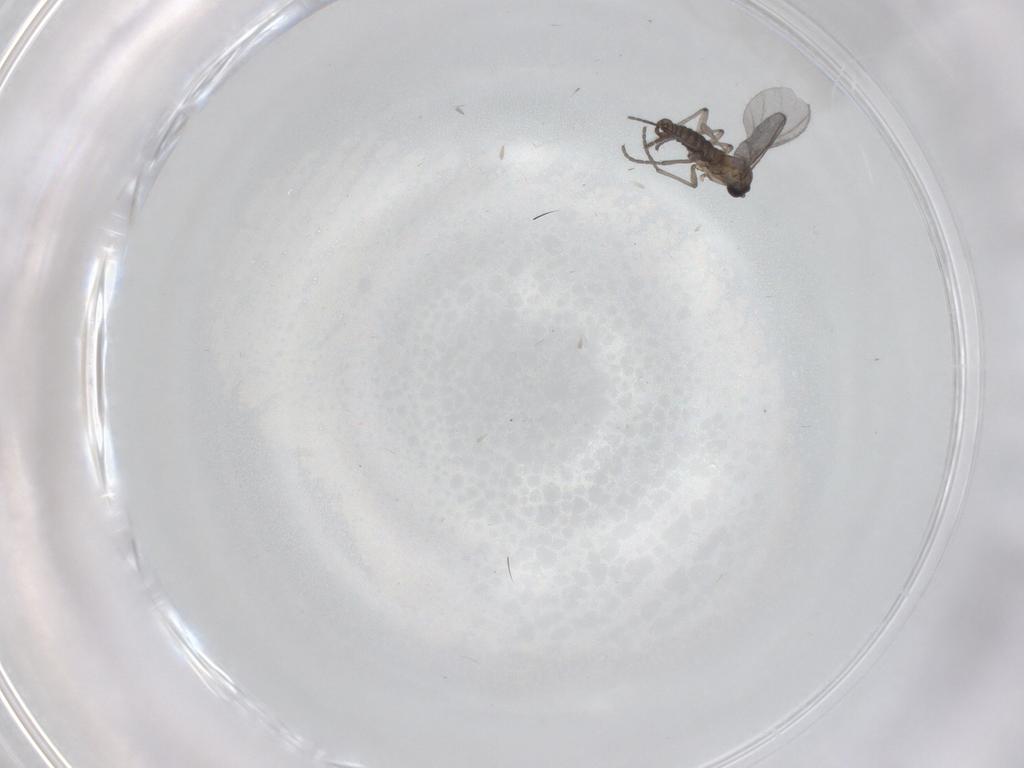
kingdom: Animalia
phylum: Arthropoda
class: Insecta
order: Diptera
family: Sciaridae
